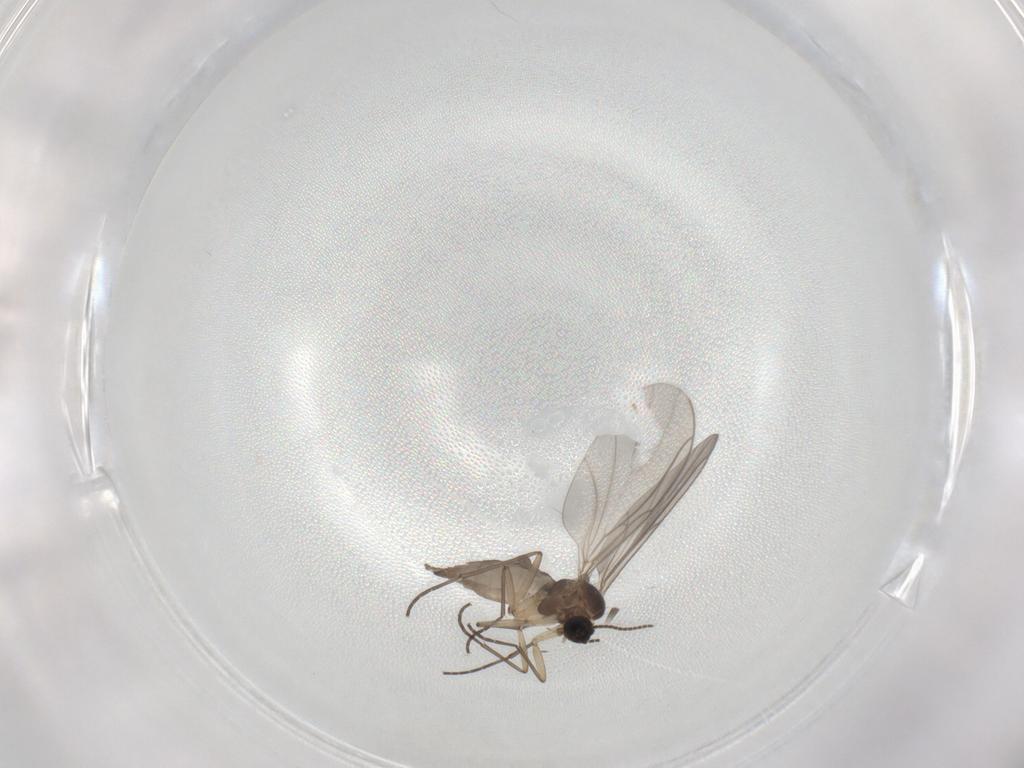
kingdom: Animalia
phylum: Arthropoda
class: Insecta
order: Diptera
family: Sciaridae
